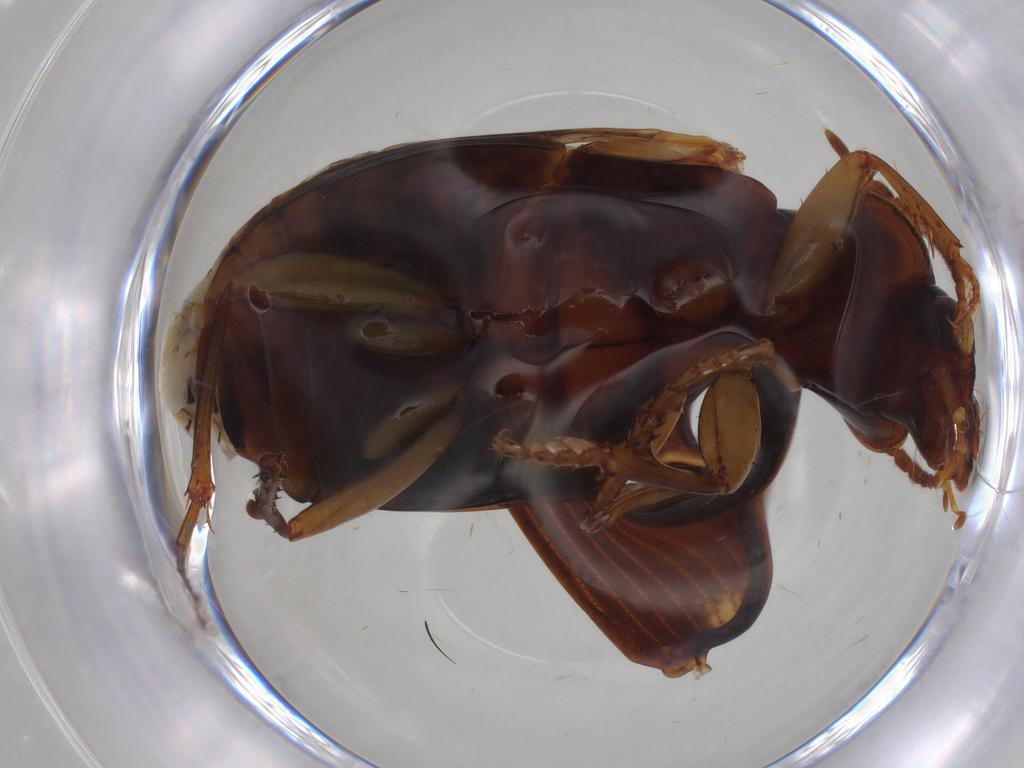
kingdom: Animalia
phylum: Arthropoda
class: Insecta
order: Coleoptera
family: Carabidae
